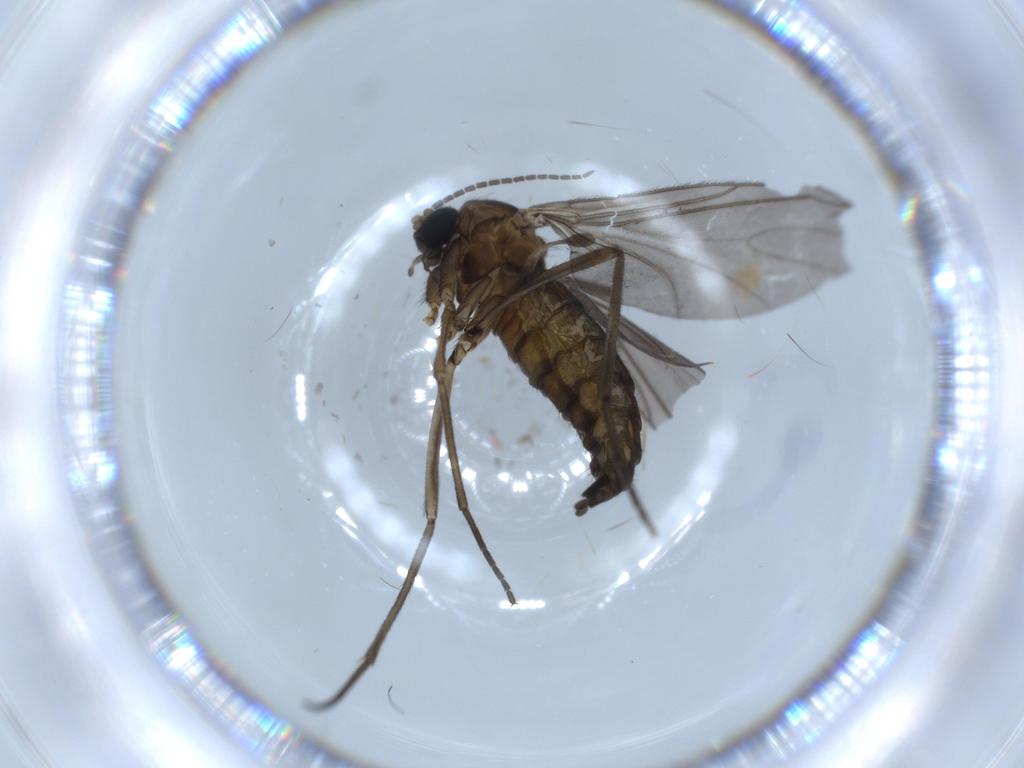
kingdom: Animalia
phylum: Arthropoda
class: Insecta
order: Diptera
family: Sciaridae
